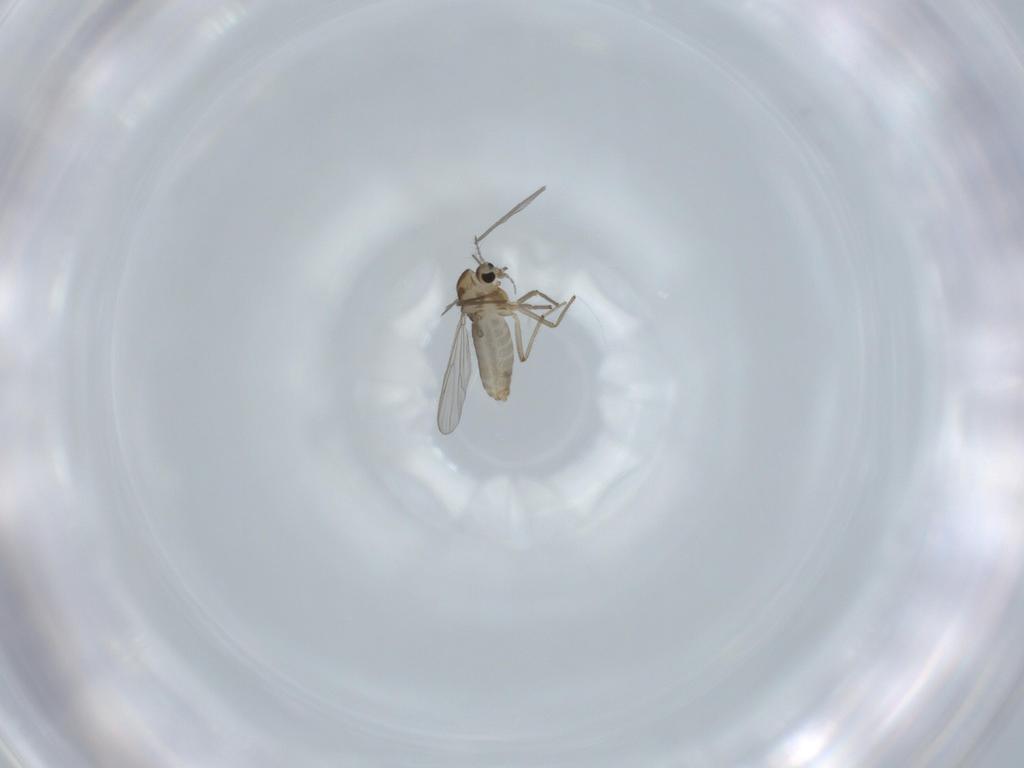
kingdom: Animalia
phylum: Arthropoda
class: Insecta
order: Diptera
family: Chironomidae
